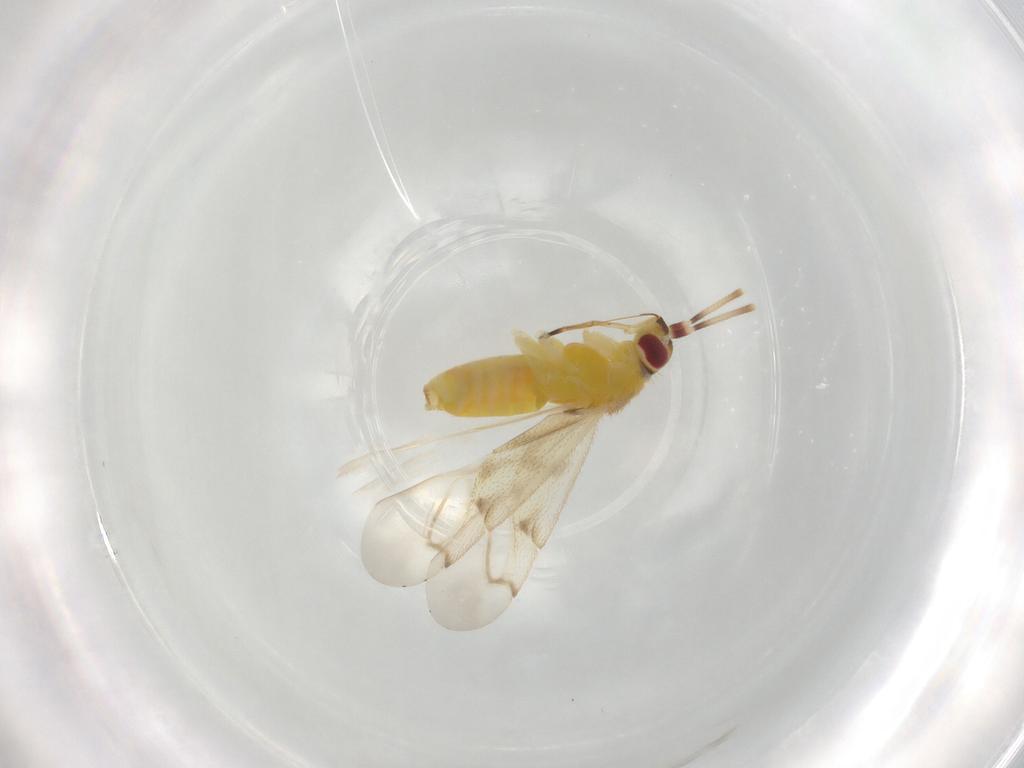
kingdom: Animalia
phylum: Arthropoda
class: Insecta
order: Hemiptera
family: Miridae
